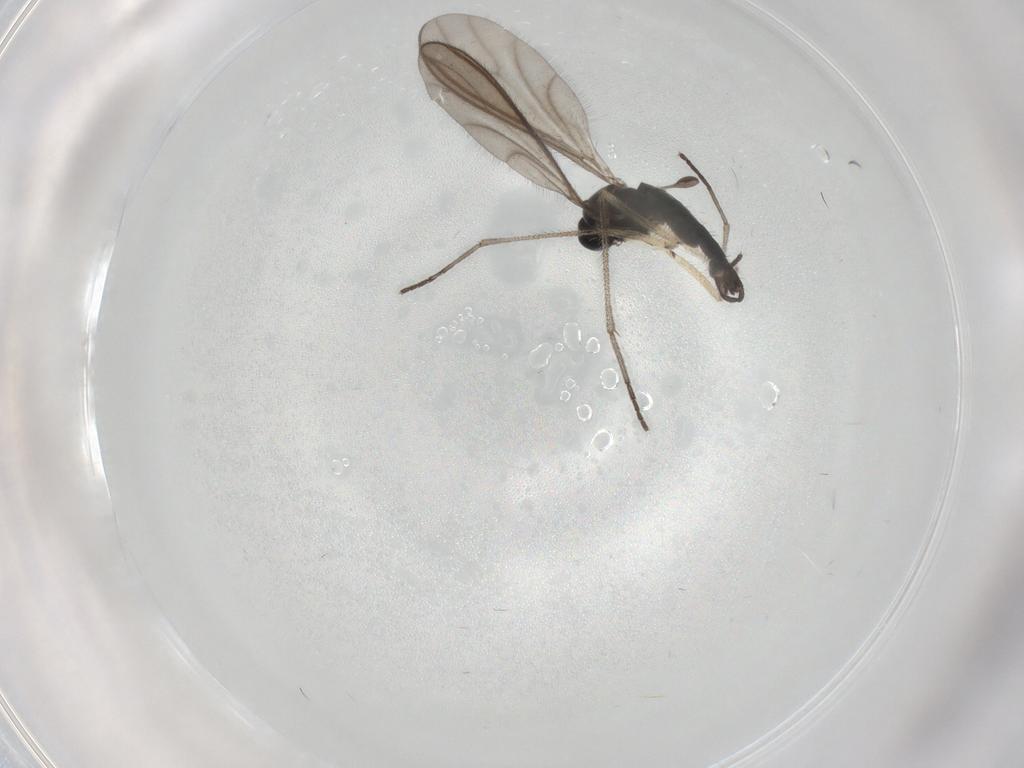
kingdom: Animalia
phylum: Arthropoda
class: Insecta
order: Diptera
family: Sciaridae
